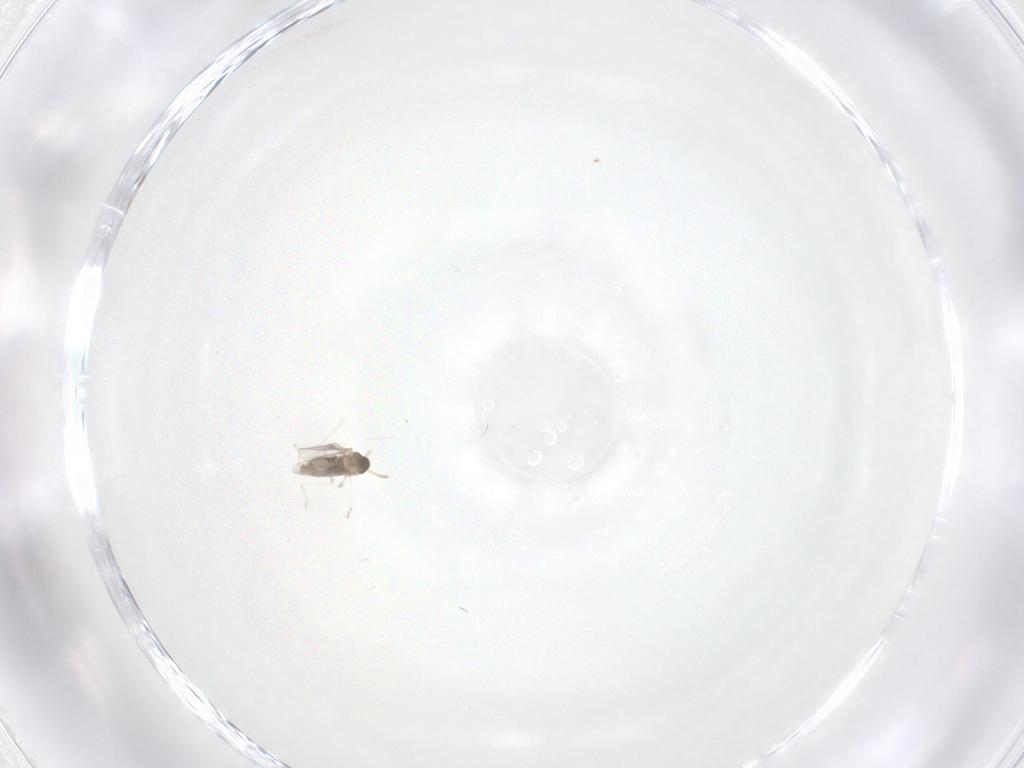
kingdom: Animalia
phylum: Arthropoda
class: Insecta
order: Diptera
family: Cecidomyiidae
